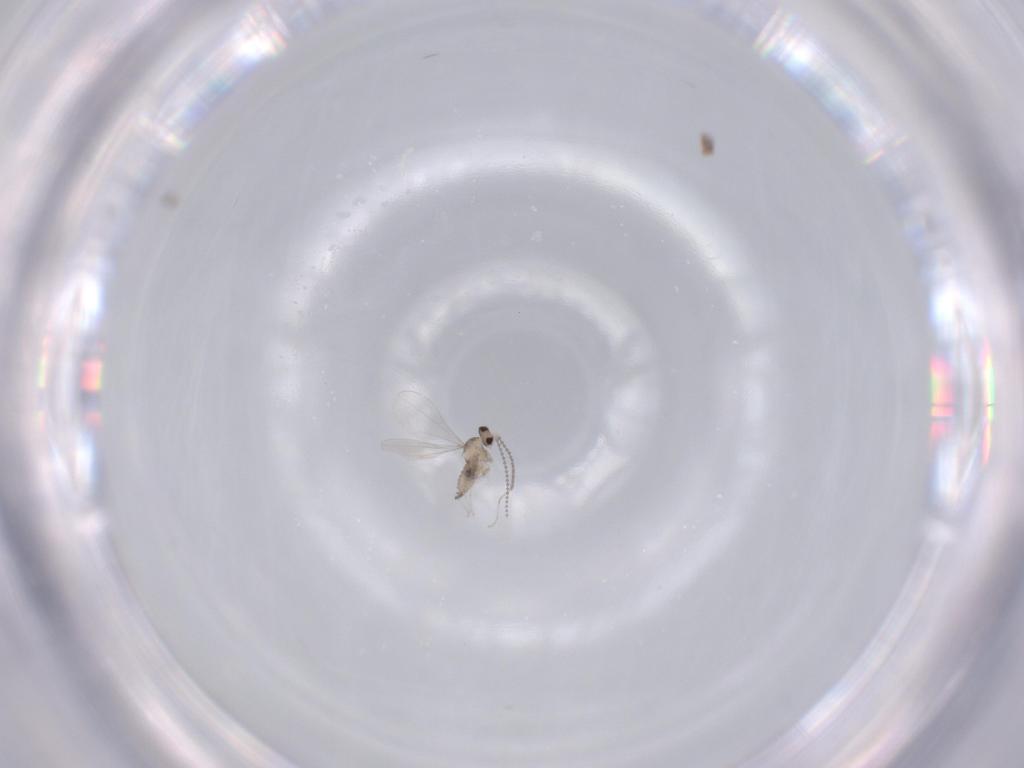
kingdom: Animalia
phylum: Arthropoda
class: Insecta
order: Diptera
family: Cecidomyiidae
